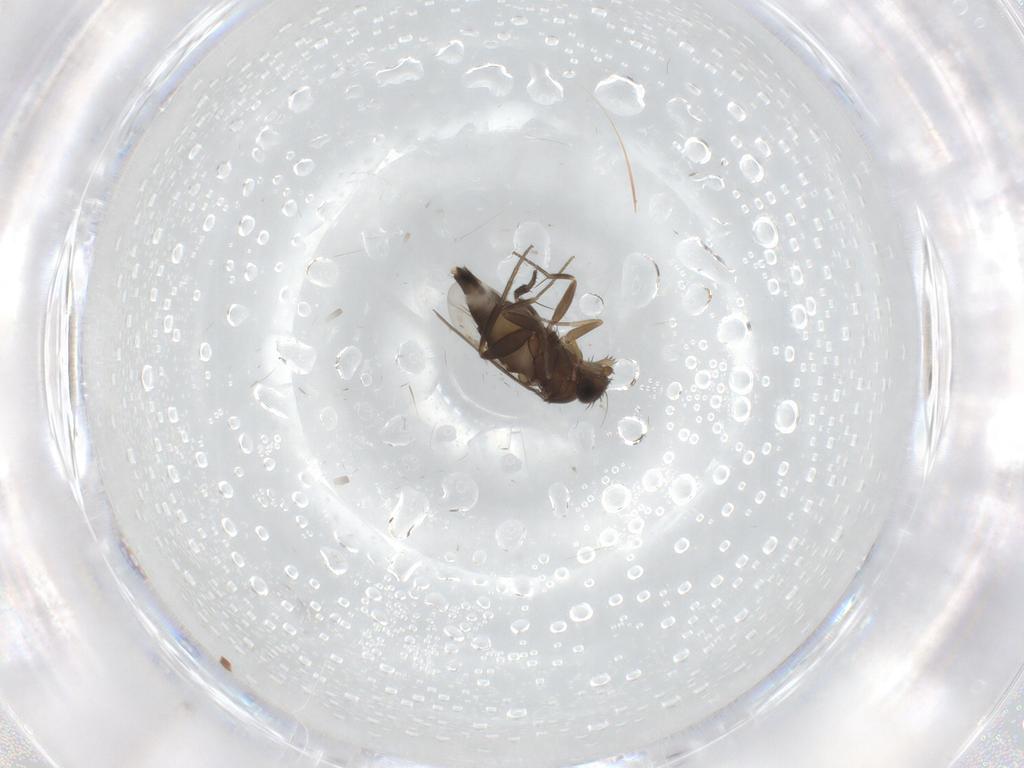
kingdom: Animalia
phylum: Arthropoda
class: Insecta
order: Diptera
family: Phoridae
